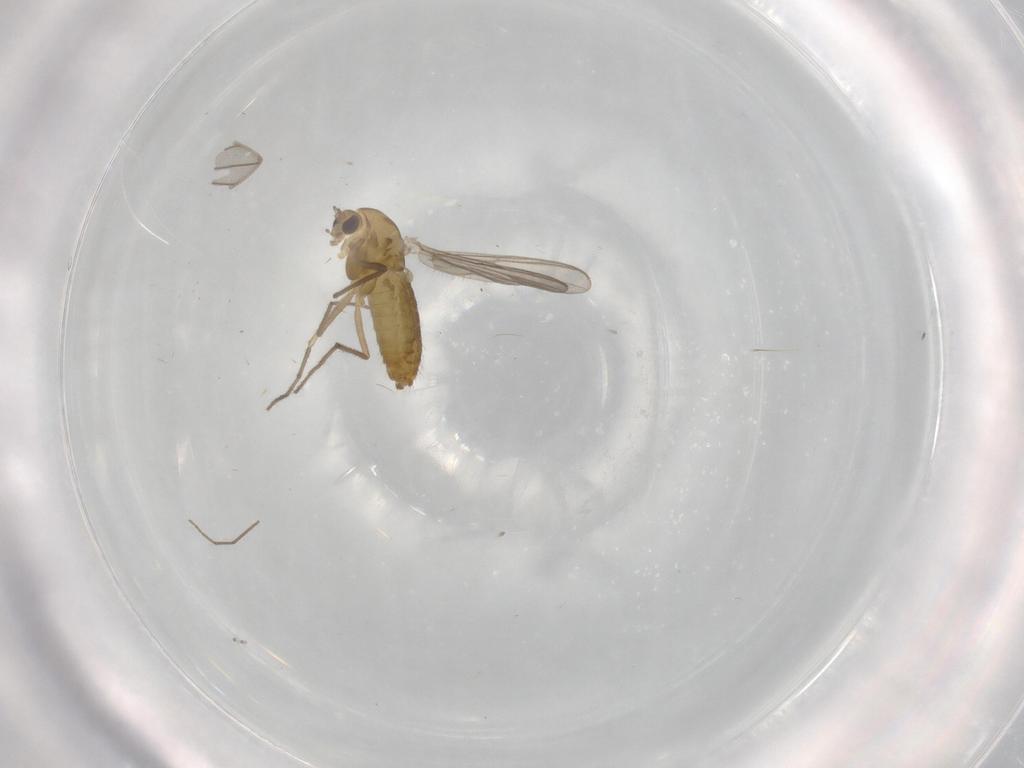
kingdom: Animalia
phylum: Arthropoda
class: Insecta
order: Diptera
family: Chironomidae
